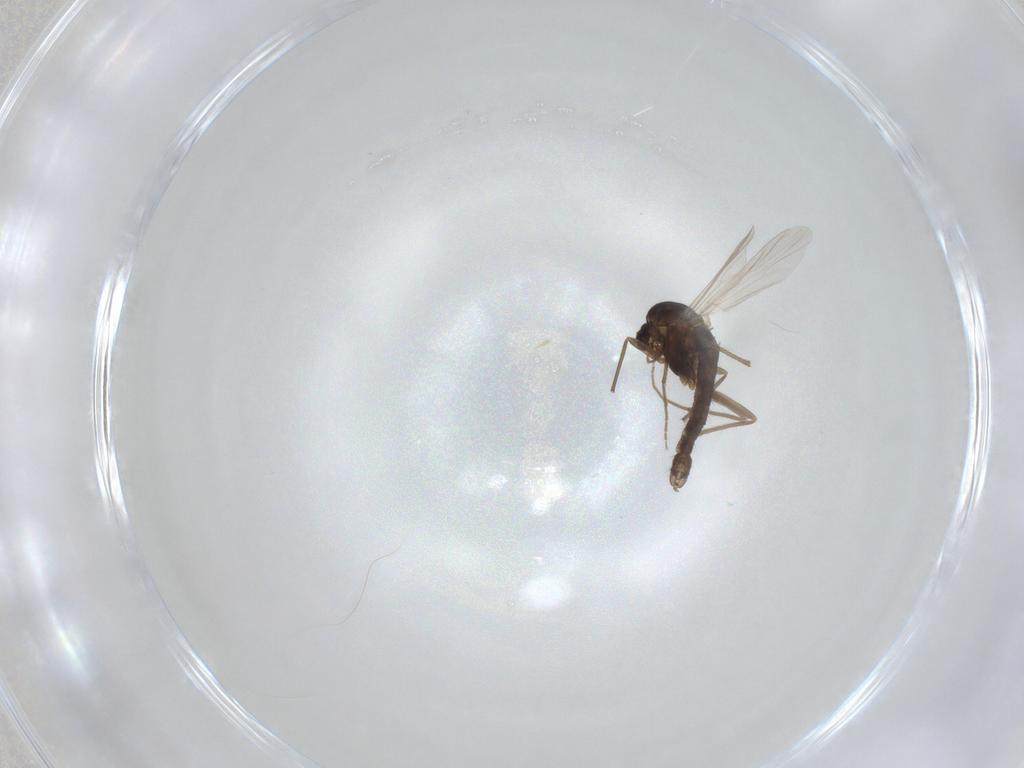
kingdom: Animalia
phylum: Arthropoda
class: Insecta
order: Diptera
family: Chironomidae
